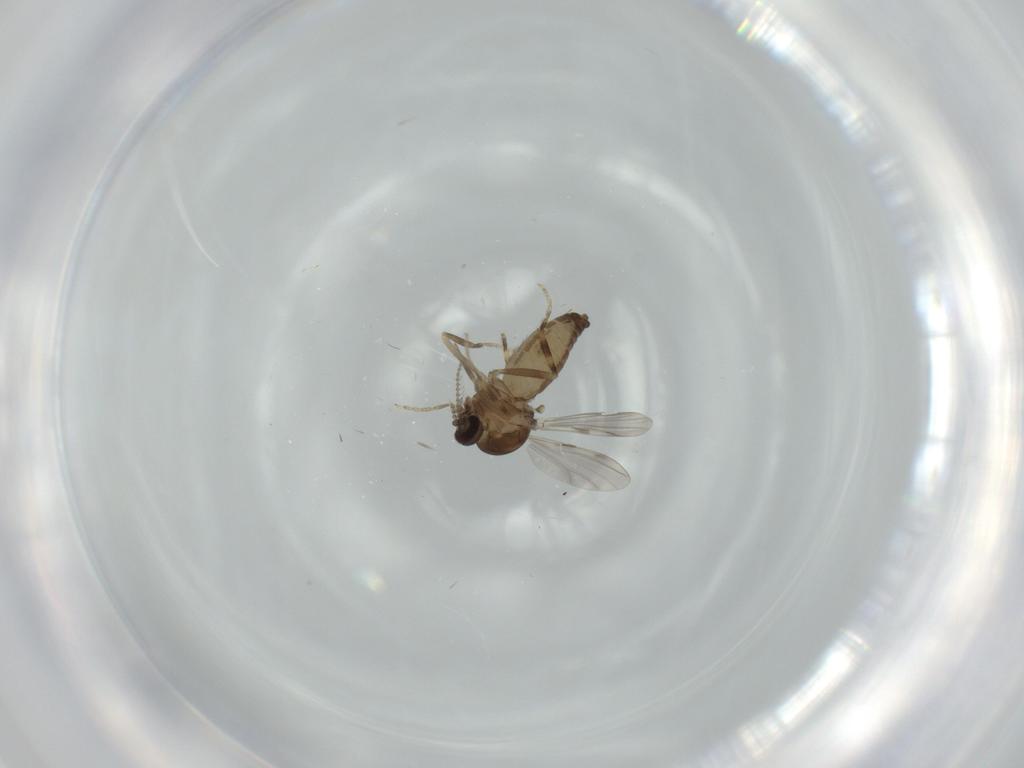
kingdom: Animalia
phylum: Arthropoda
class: Insecta
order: Diptera
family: Ceratopogonidae
